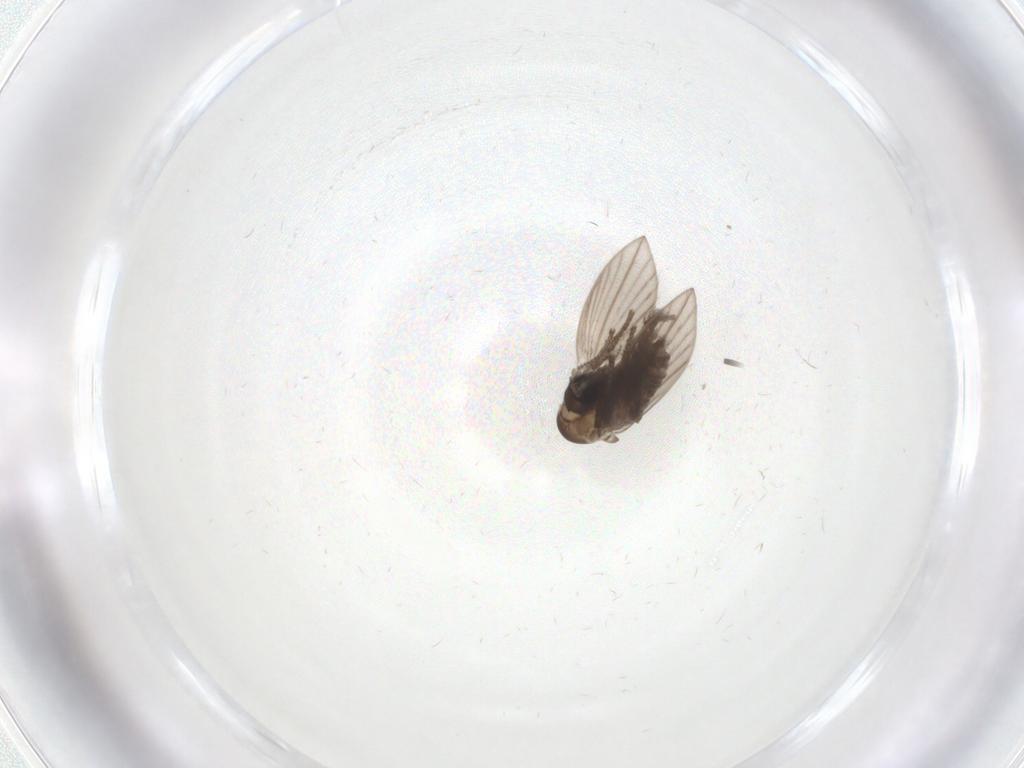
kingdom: Animalia
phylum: Arthropoda
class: Insecta
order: Diptera
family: Psychodidae
